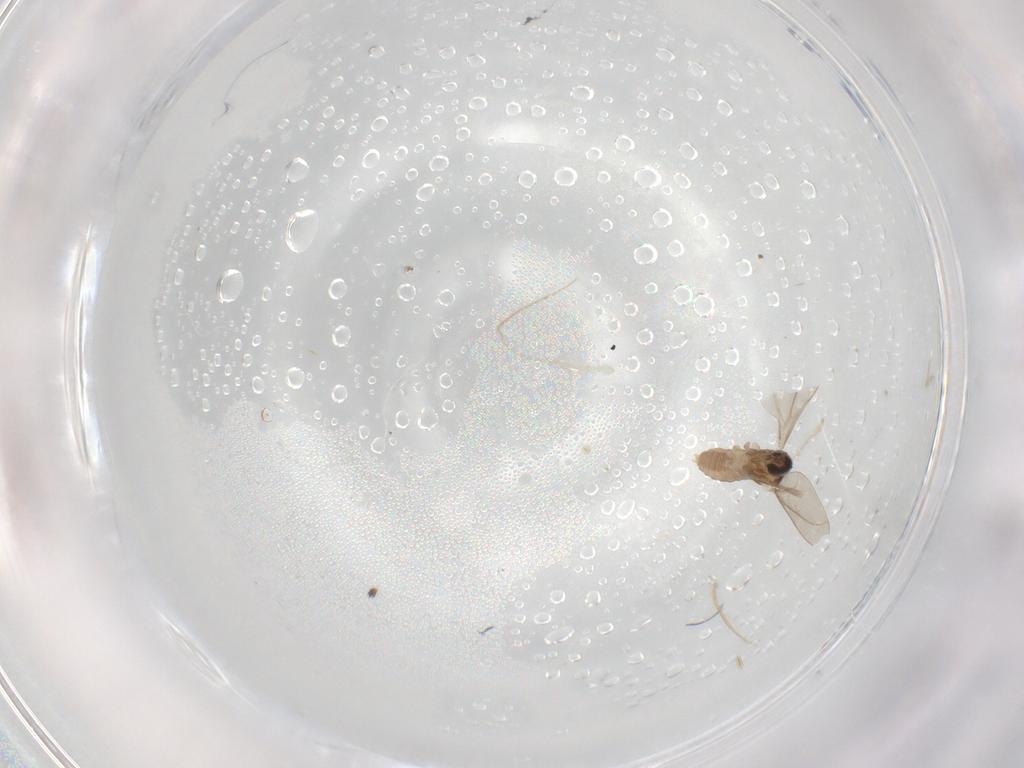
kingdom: Animalia
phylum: Arthropoda
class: Insecta
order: Diptera
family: Cecidomyiidae
